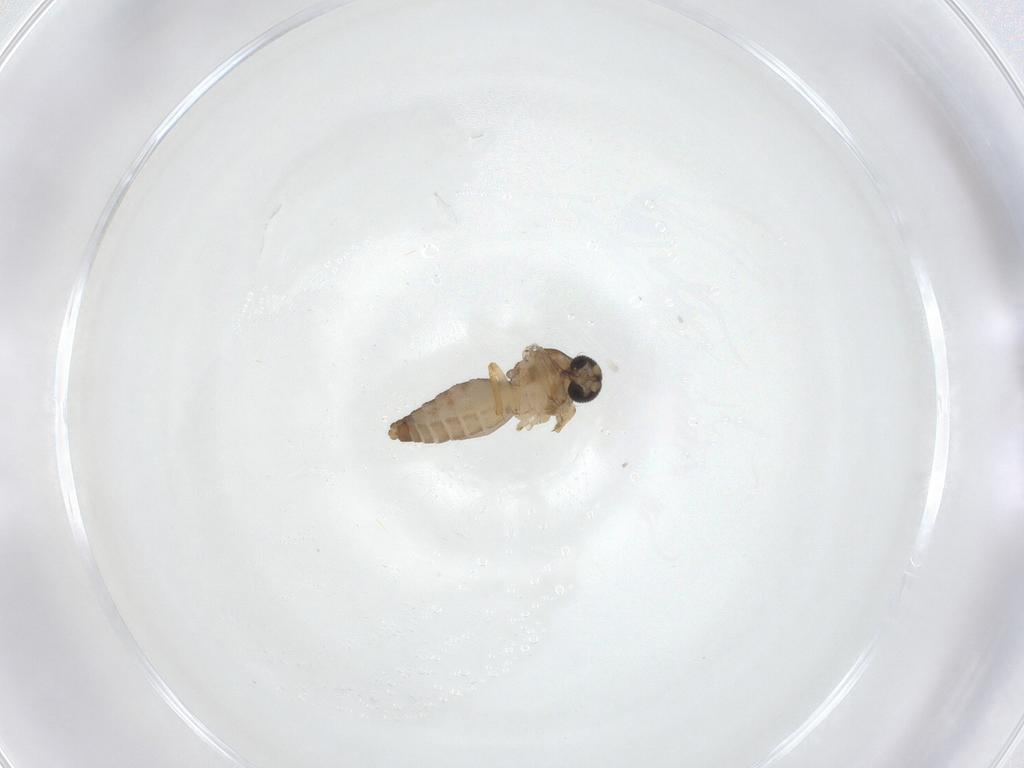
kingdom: Animalia
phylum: Arthropoda
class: Insecta
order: Diptera
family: Ceratopogonidae
